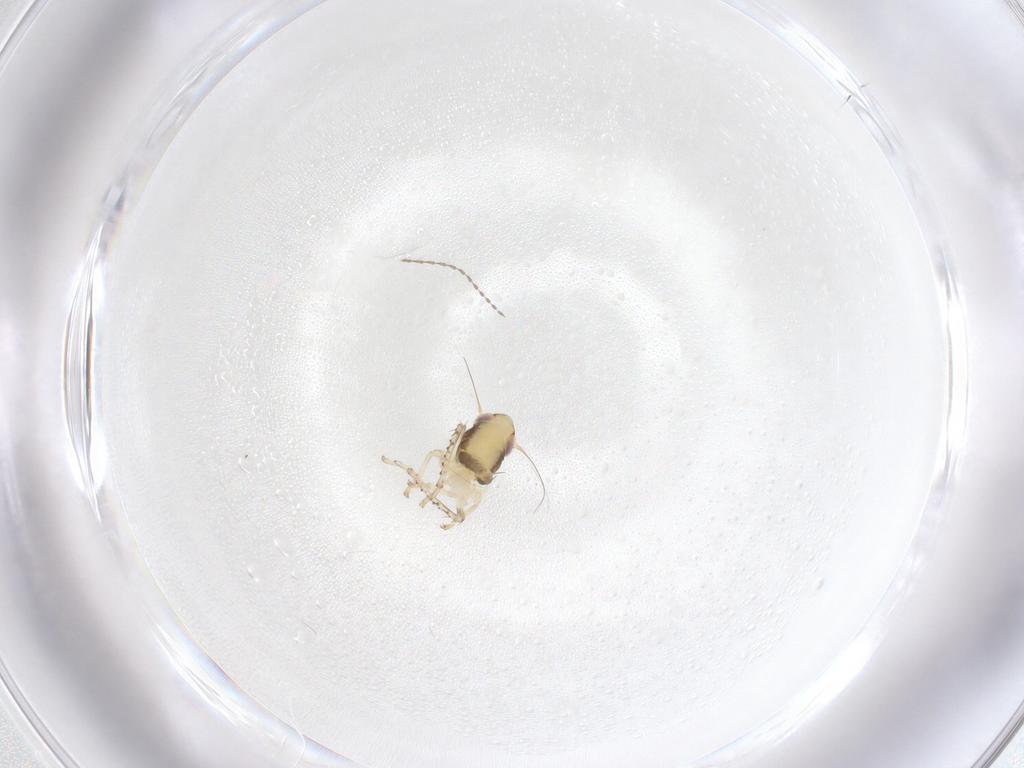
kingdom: Animalia
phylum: Arthropoda
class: Insecta
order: Hemiptera
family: Cicadellidae
